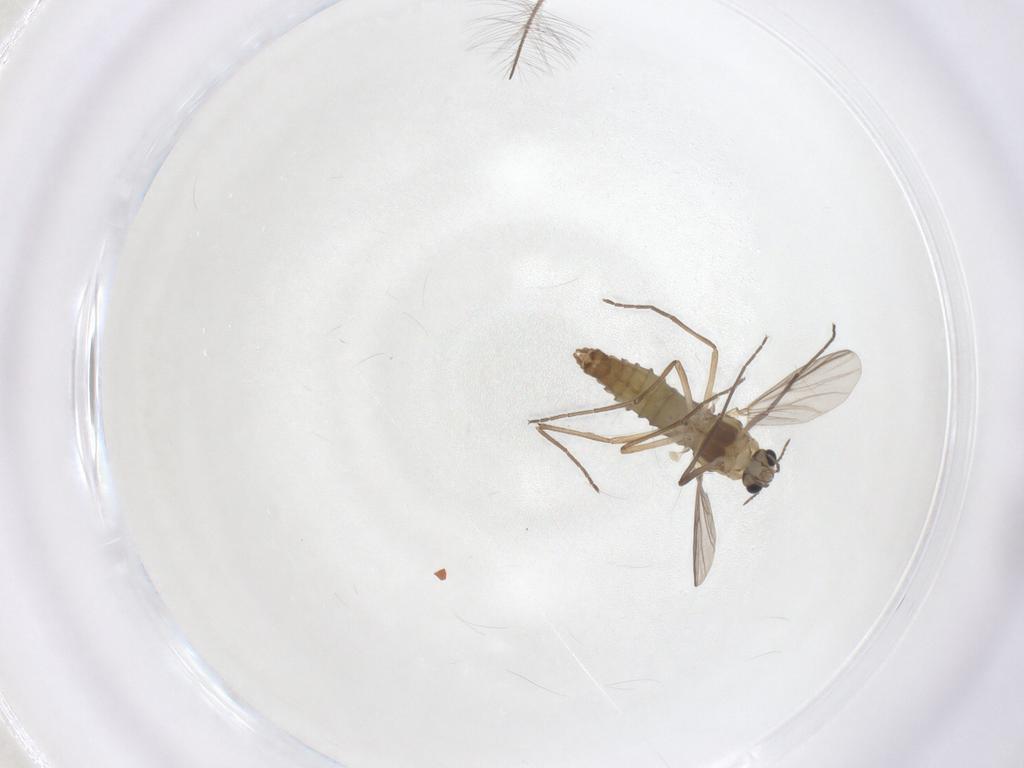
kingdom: Animalia
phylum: Arthropoda
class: Insecta
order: Diptera
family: Chironomidae
